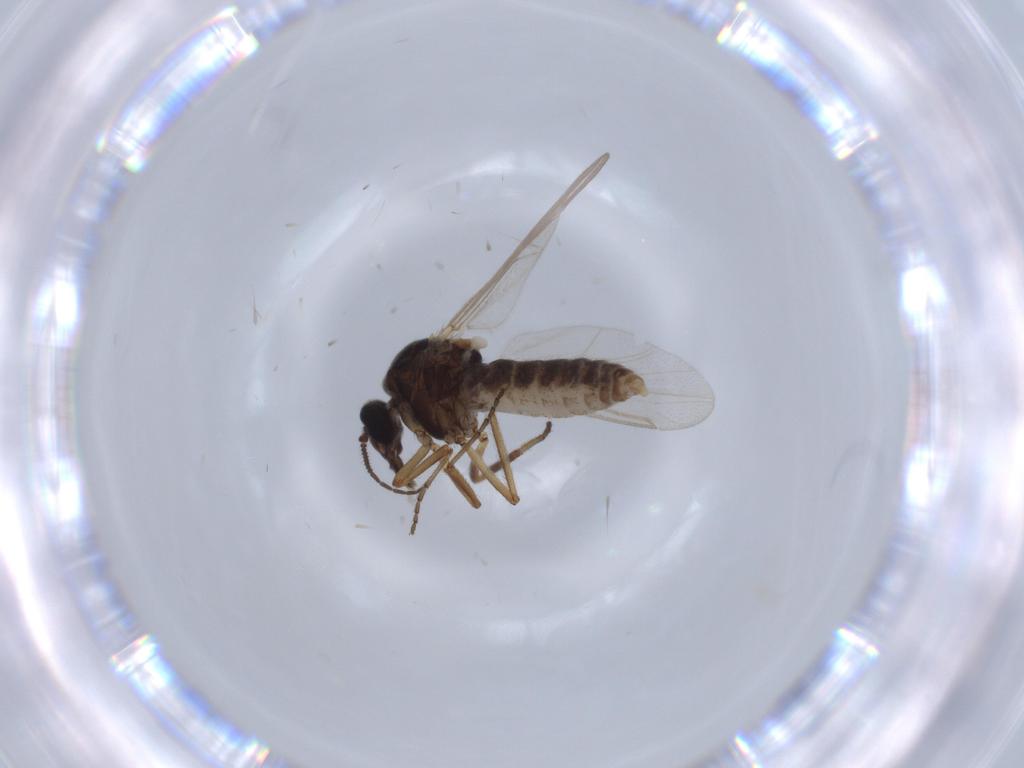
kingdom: Animalia
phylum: Arthropoda
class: Insecta
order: Diptera
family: Ceratopogonidae
